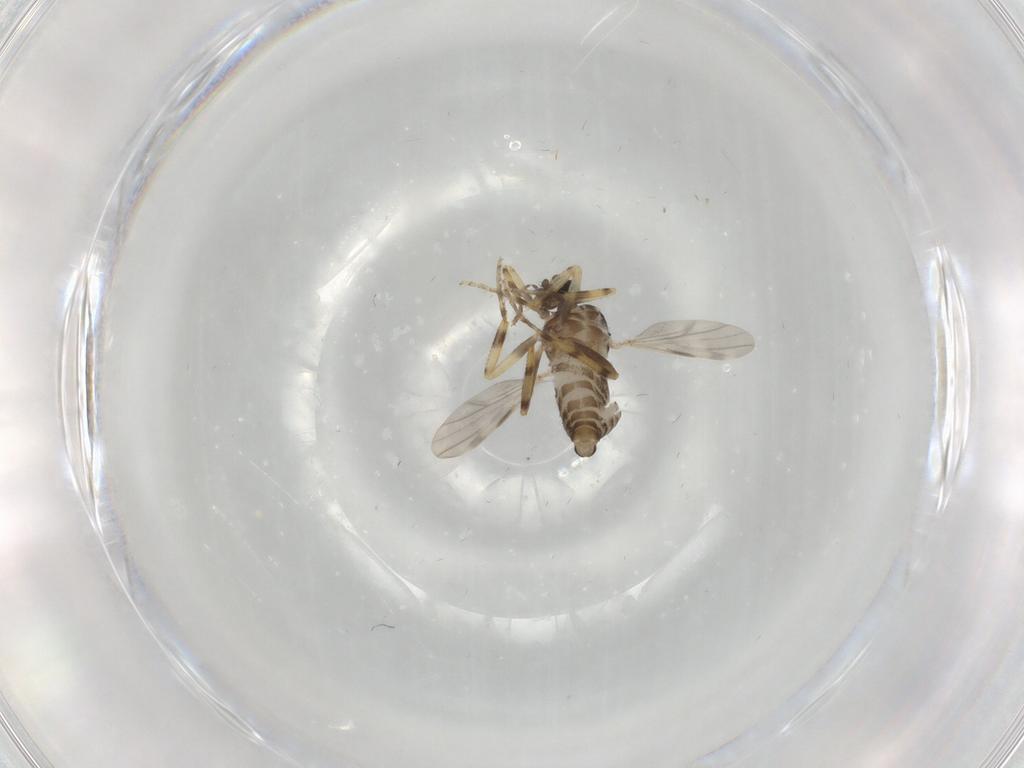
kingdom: Animalia
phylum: Arthropoda
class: Insecta
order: Diptera
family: Ceratopogonidae
